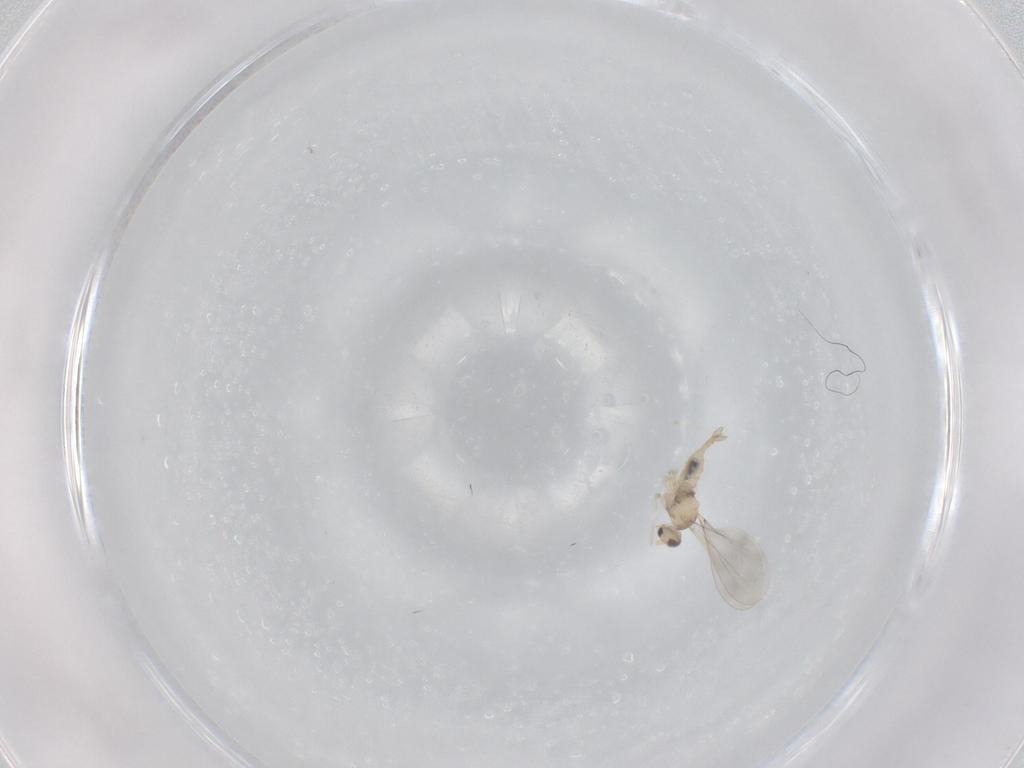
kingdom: Animalia
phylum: Arthropoda
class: Insecta
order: Diptera
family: Cecidomyiidae
